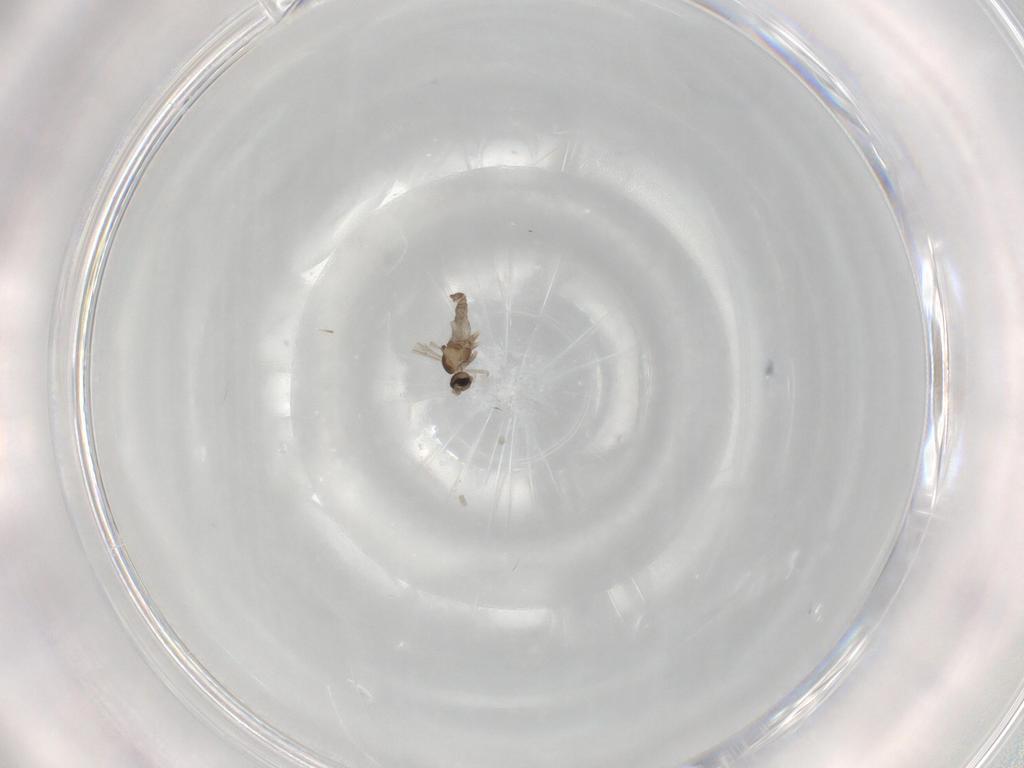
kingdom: Animalia
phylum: Arthropoda
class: Insecta
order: Diptera
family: Cecidomyiidae
